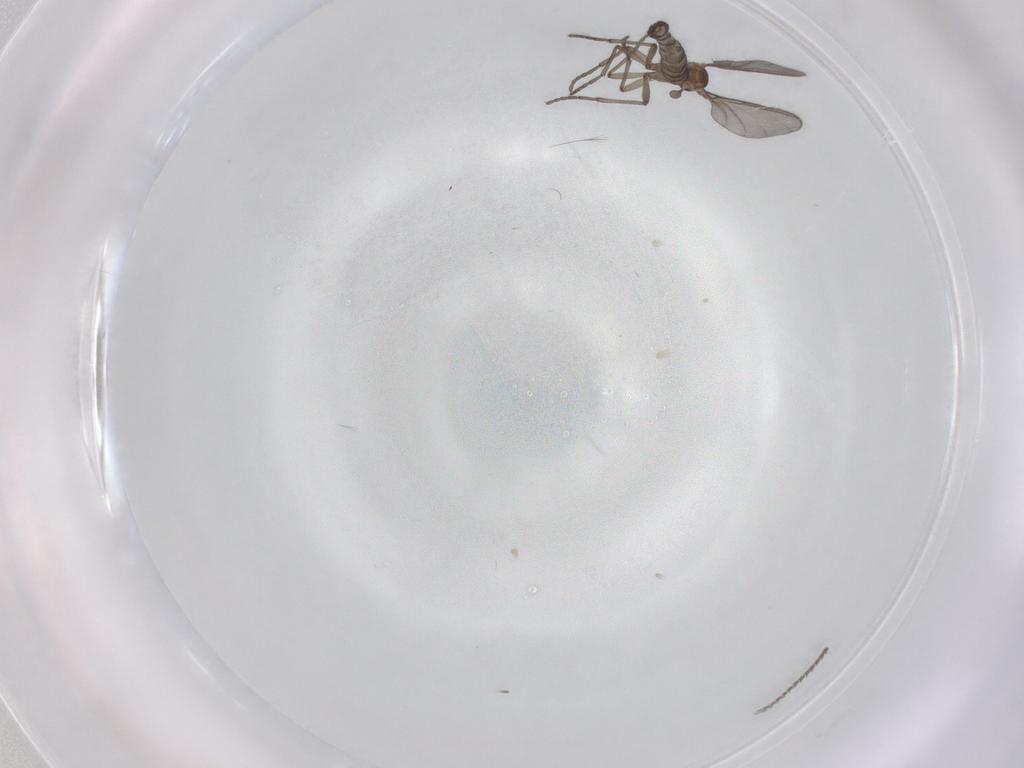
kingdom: Animalia
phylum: Arthropoda
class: Insecta
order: Diptera
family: Sciaridae
